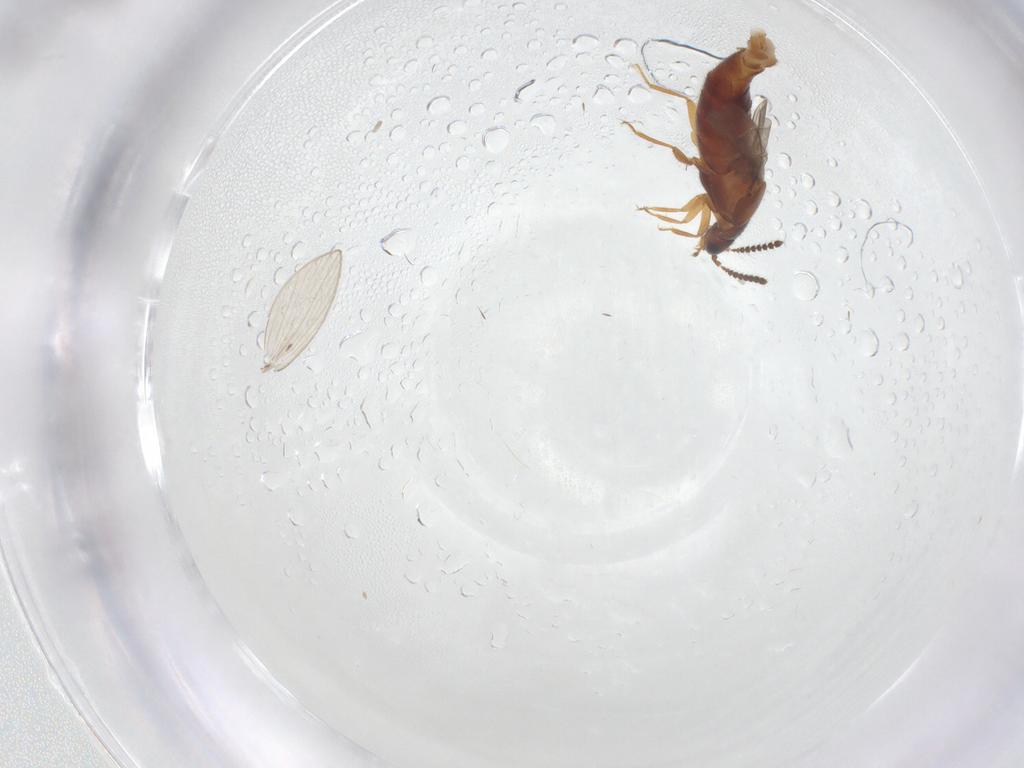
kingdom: Animalia
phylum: Arthropoda
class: Insecta
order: Coleoptera
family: Staphylinidae
